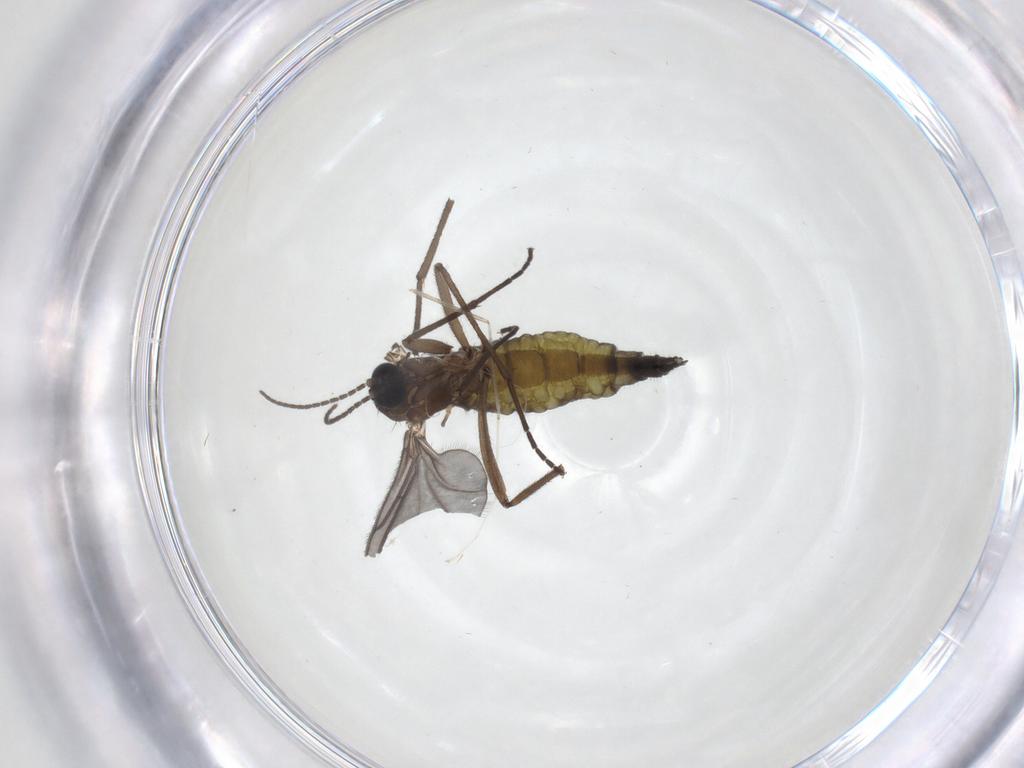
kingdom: Animalia
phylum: Arthropoda
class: Insecta
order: Diptera
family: Sciaridae
